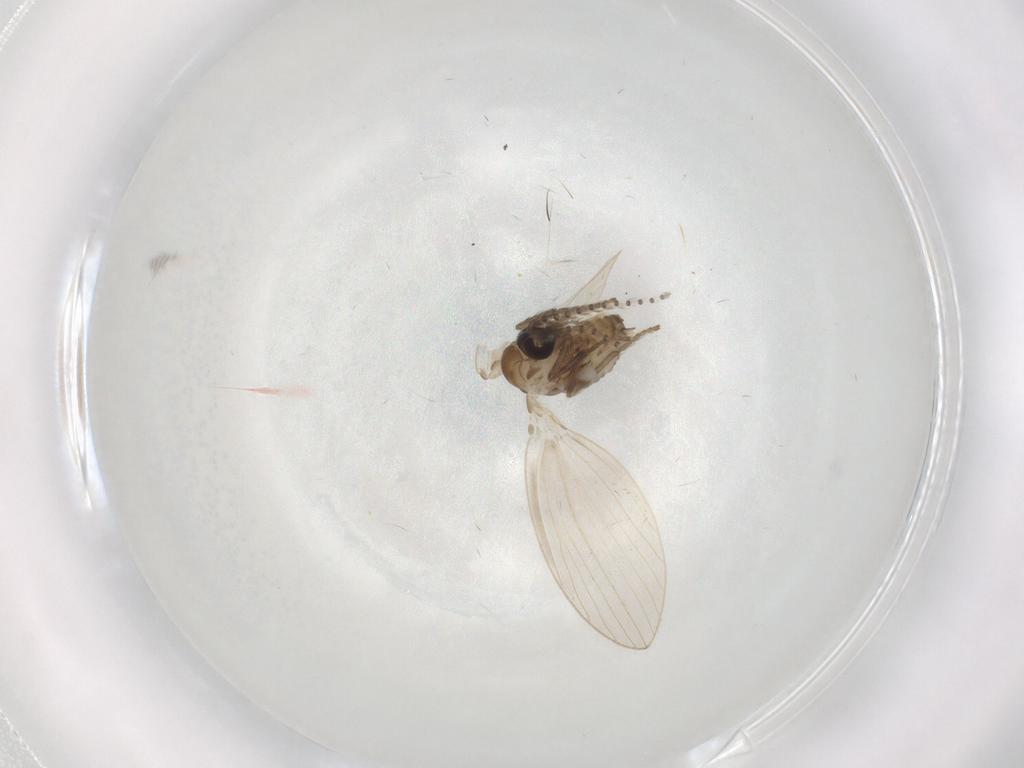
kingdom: Animalia
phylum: Arthropoda
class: Insecta
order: Diptera
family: Psychodidae
